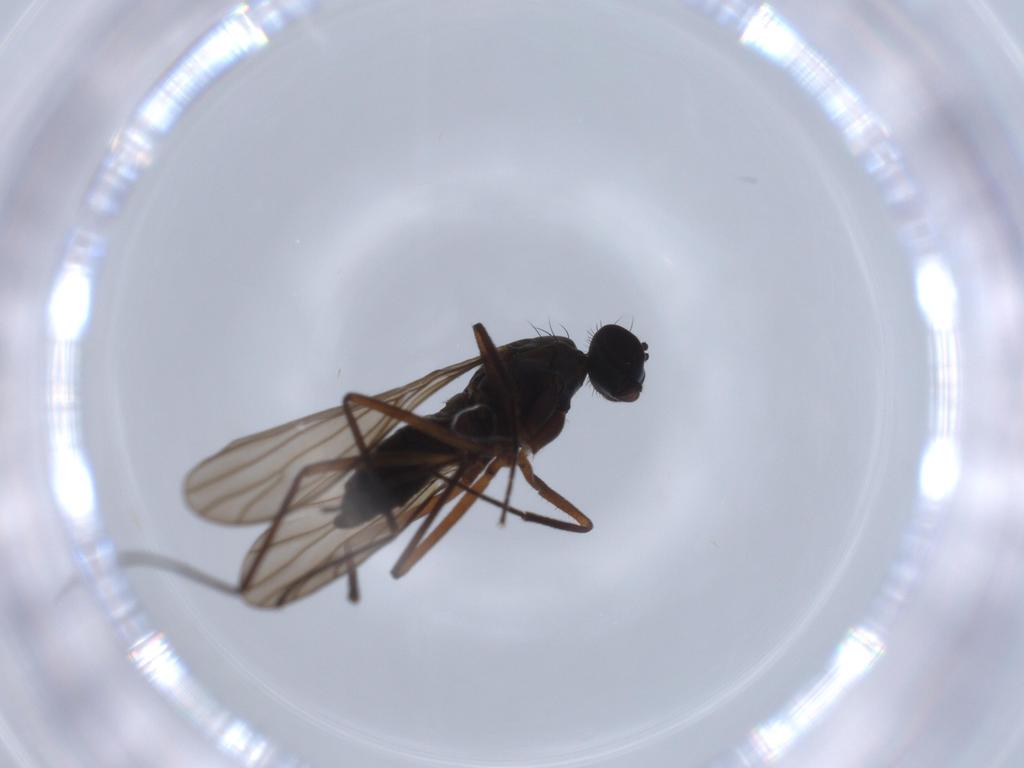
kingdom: Animalia
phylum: Arthropoda
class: Insecta
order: Diptera
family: Cecidomyiidae
